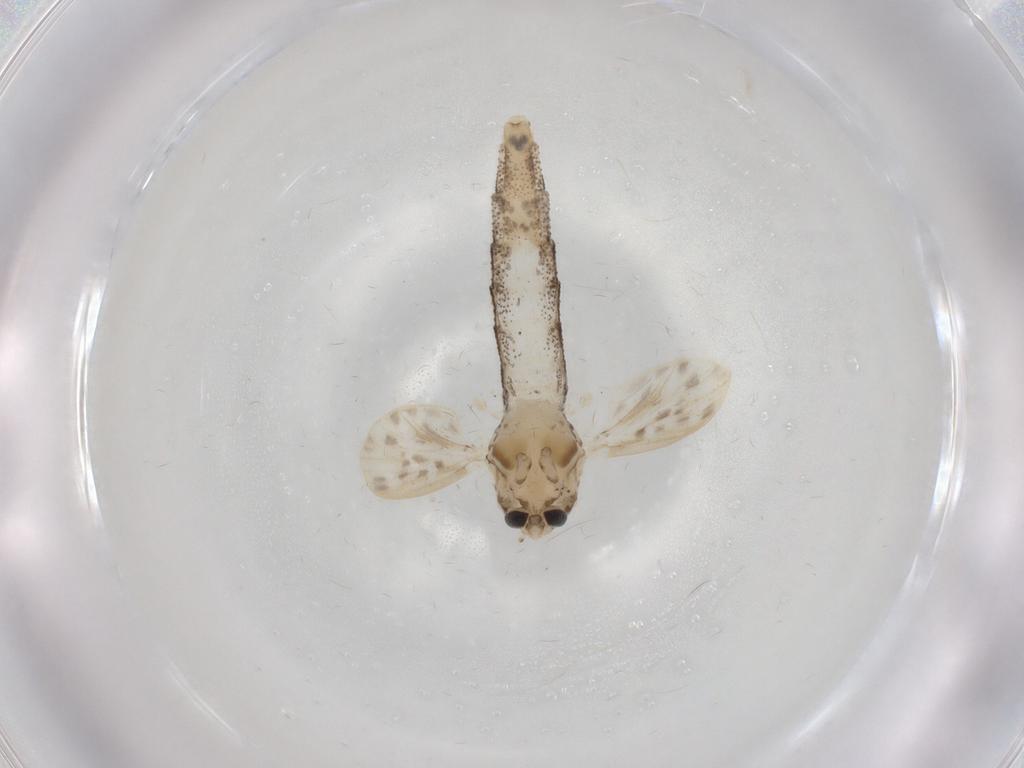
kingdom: Animalia
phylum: Arthropoda
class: Insecta
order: Diptera
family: Chaoboridae
